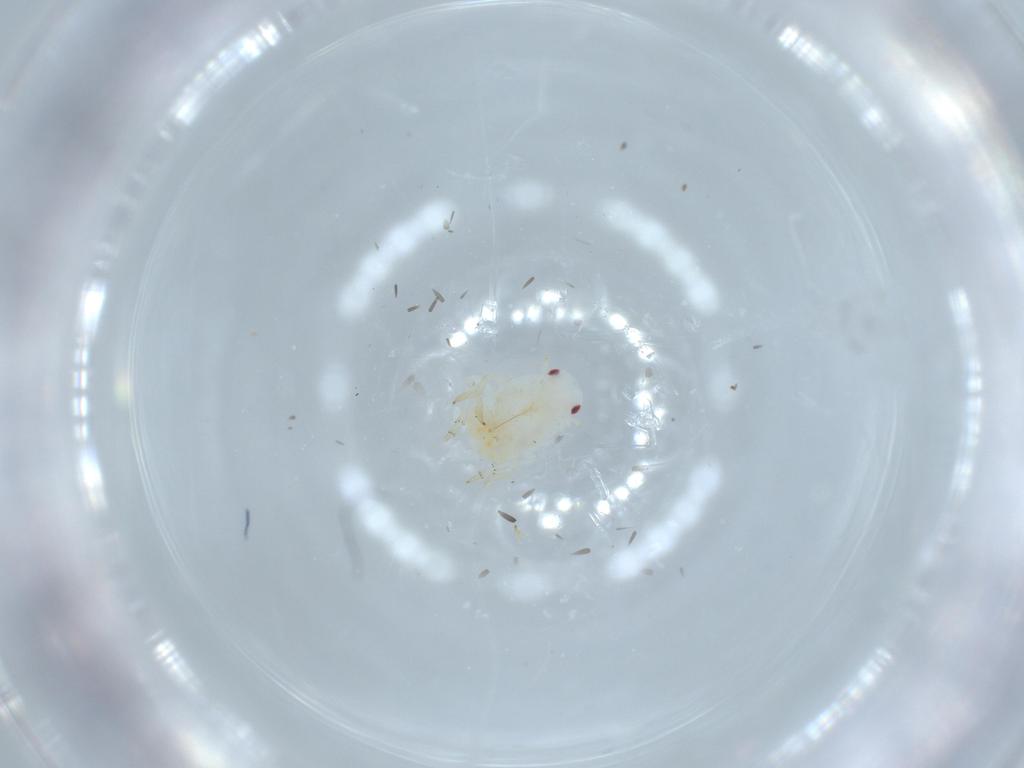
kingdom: Animalia
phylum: Arthropoda
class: Insecta
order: Hemiptera
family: Flatidae
